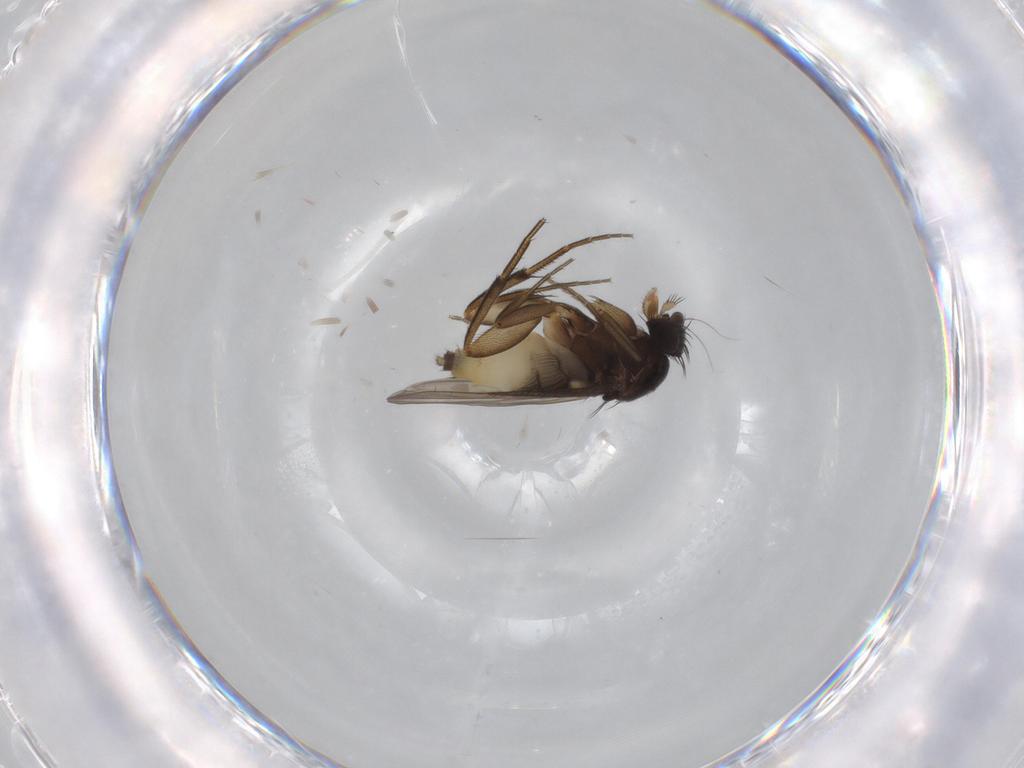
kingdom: Animalia
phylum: Arthropoda
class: Insecta
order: Diptera
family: Phoridae
